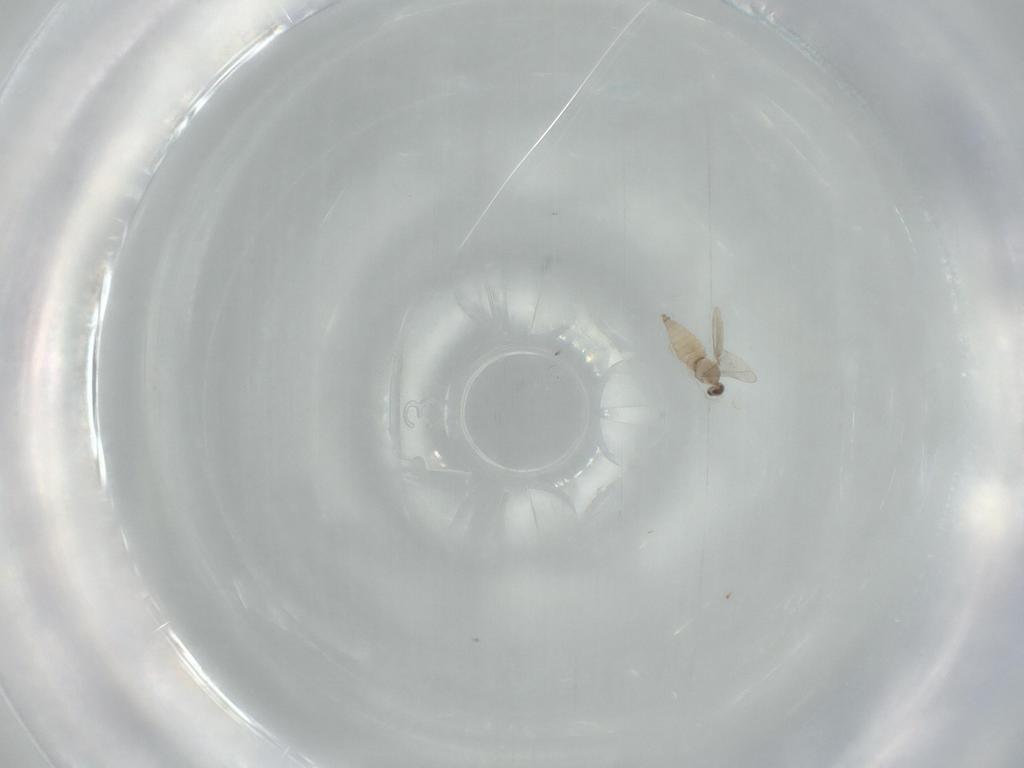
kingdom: Animalia
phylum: Arthropoda
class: Insecta
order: Diptera
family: Cecidomyiidae
